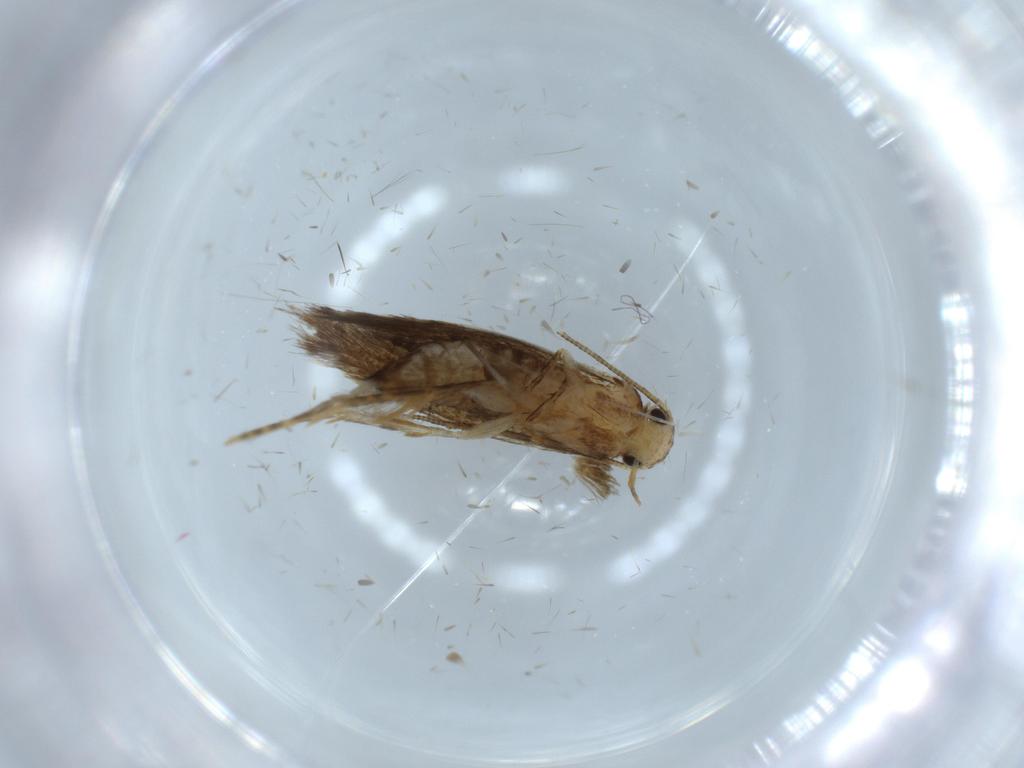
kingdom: Animalia
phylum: Arthropoda
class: Insecta
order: Lepidoptera
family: Tineidae
